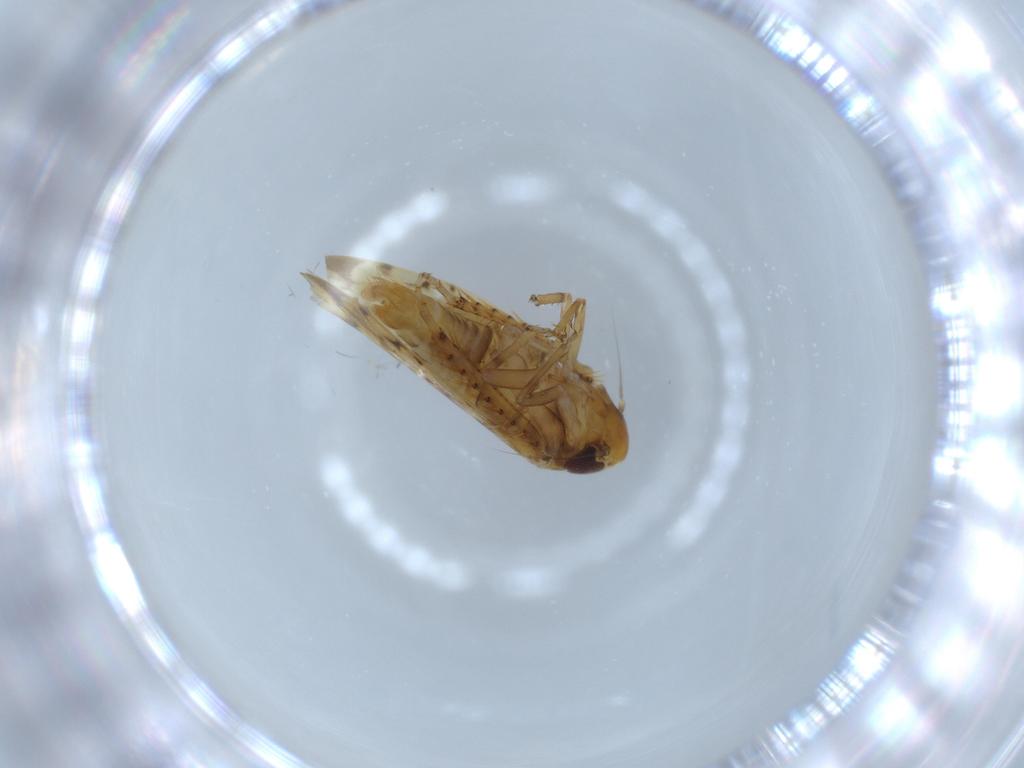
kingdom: Animalia
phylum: Arthropoda
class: Insecta
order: Hemiptera
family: Cicadellidae
